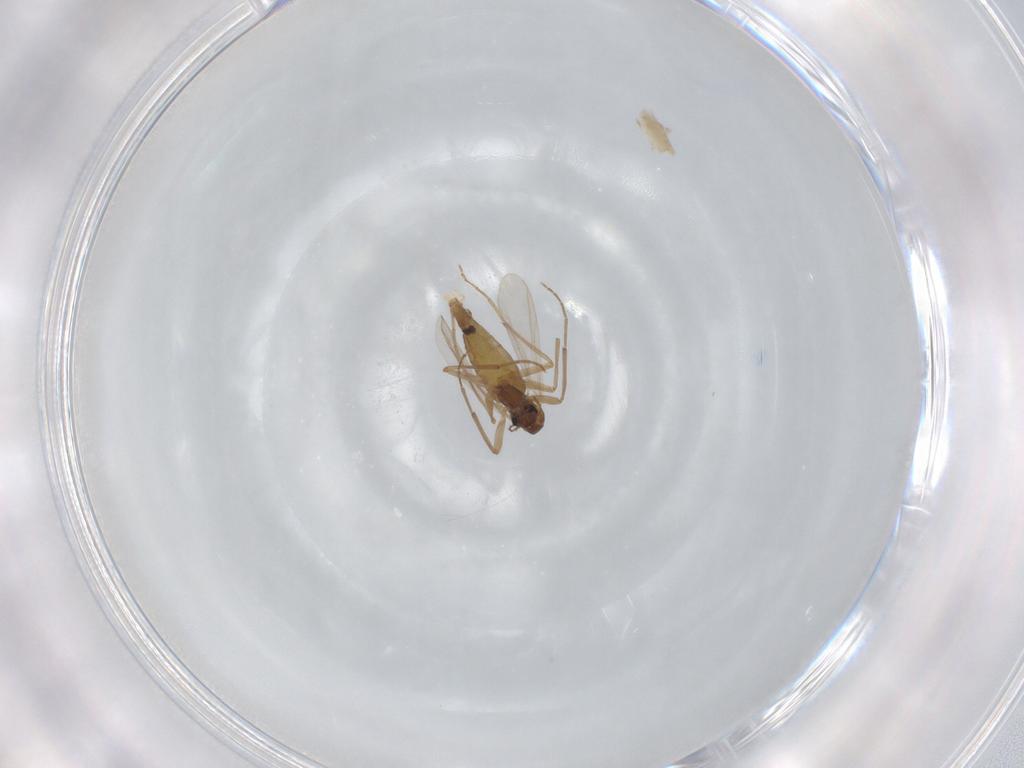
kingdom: Animalia
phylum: Arthropoda
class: Insecta
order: Diptera
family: Chironomidae
